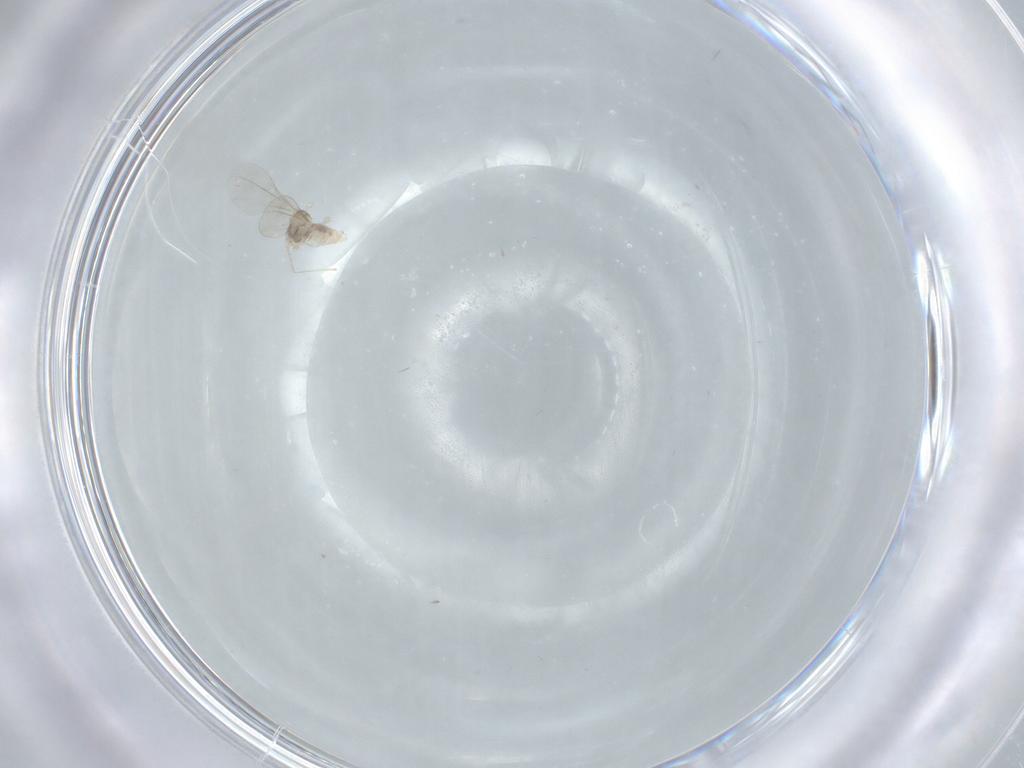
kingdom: Animalia
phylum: Arthropoda
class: Insecta
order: Diptera
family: Cecidomyiidae
